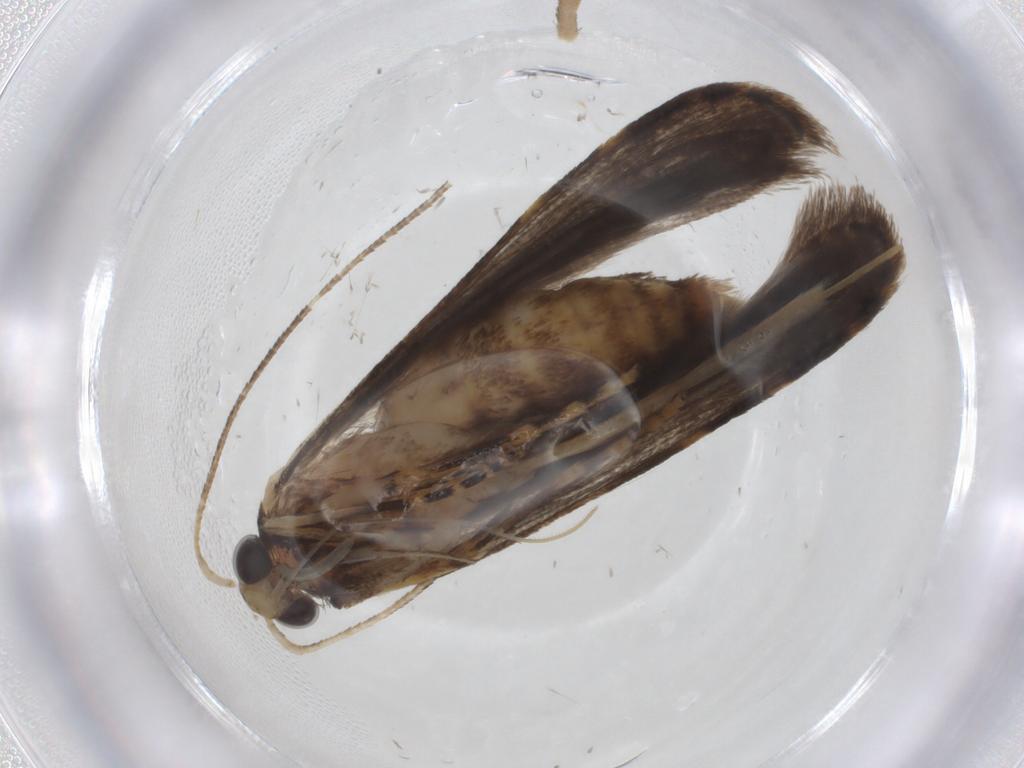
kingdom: Animalia
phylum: Arthropoda
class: Insecta
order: Lepidoptera
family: Autostichidae
